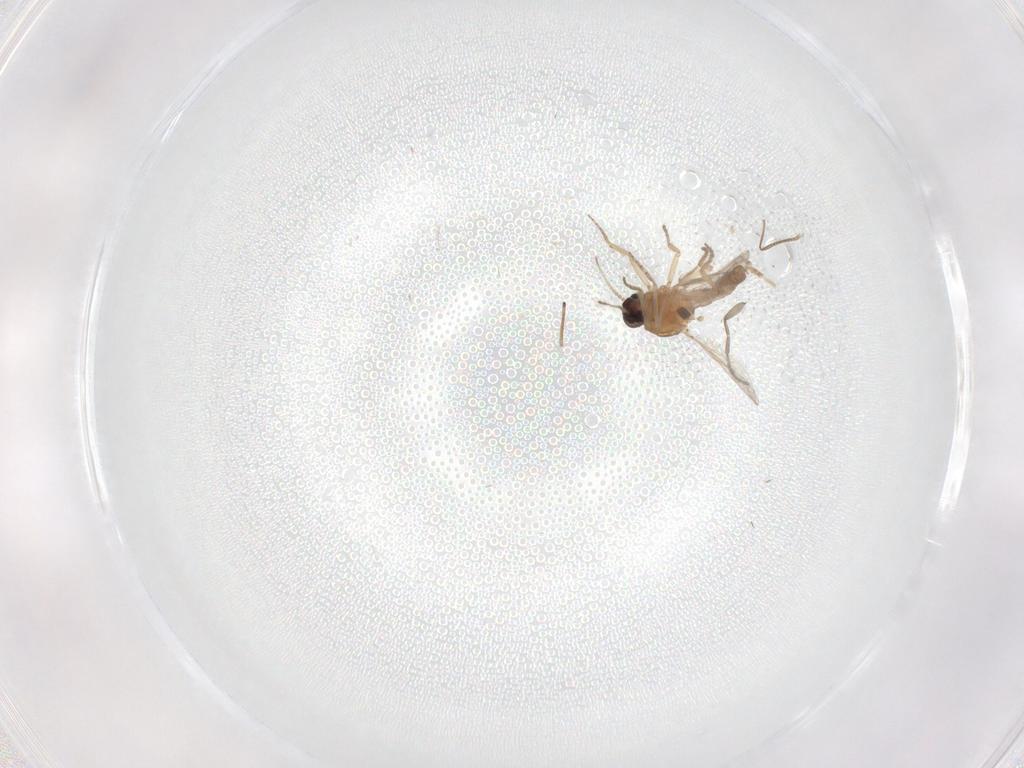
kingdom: Animalia
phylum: Arthropoda
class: Insecta
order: Diptera
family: Sciaridae
